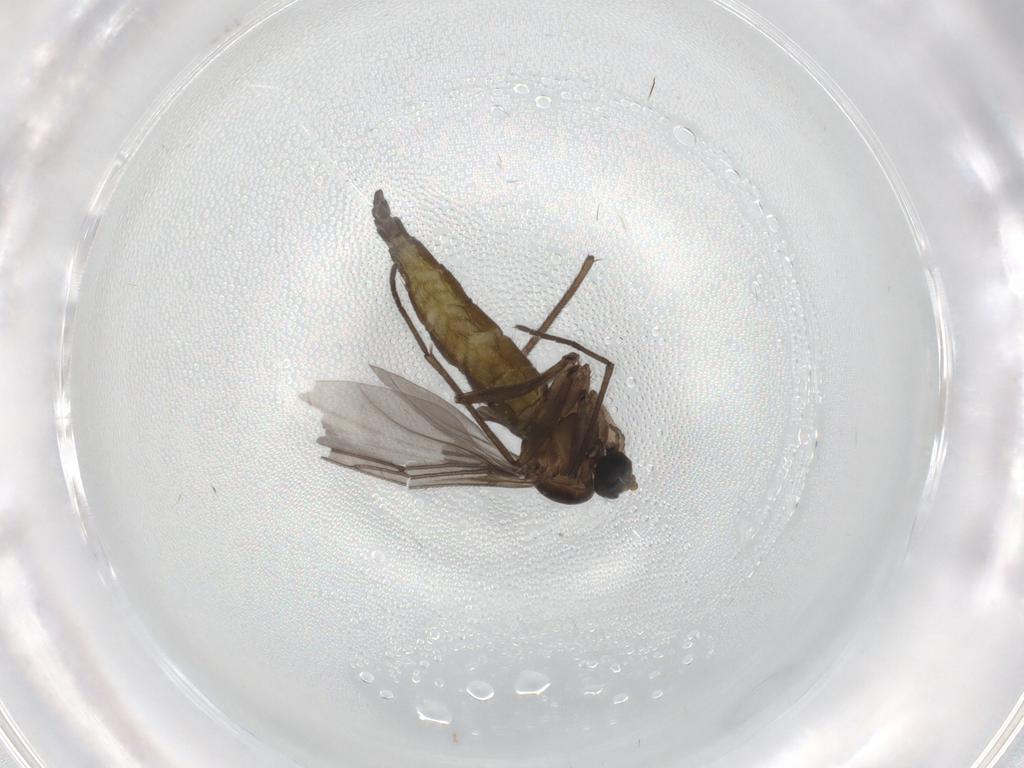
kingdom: Animalia
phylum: Arthropoda
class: Insecta
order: Diptera
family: Sciaridae
